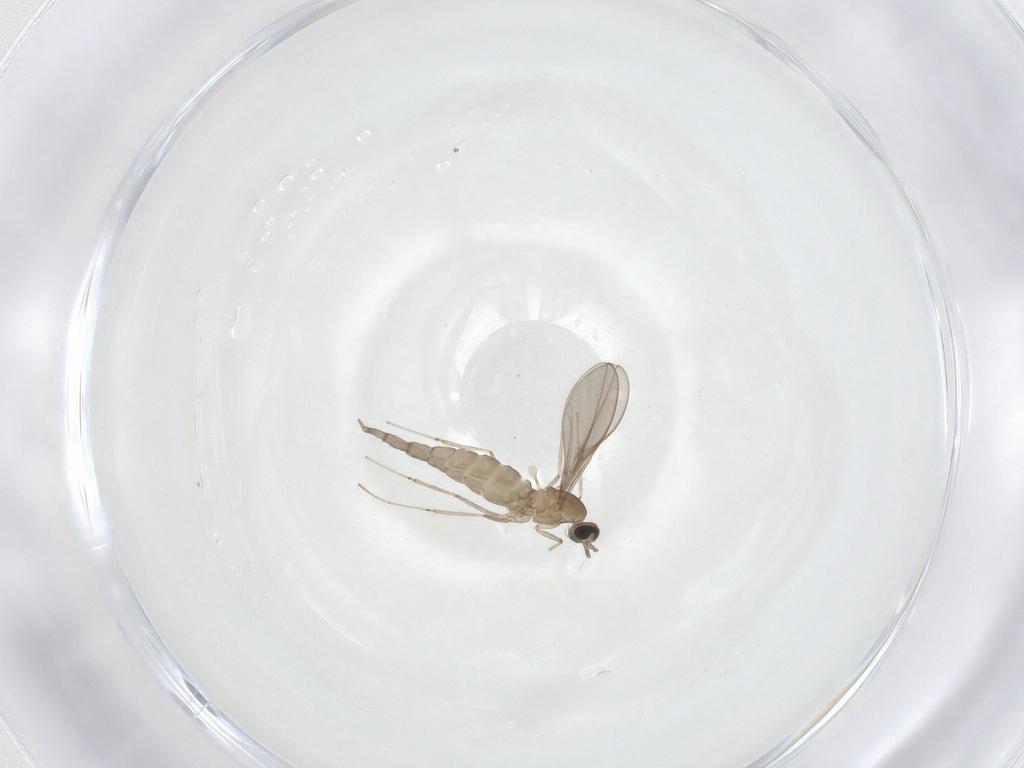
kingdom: Animalia
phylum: Arthropoda
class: Insecta
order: Diptera
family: Cecidomyiidae
